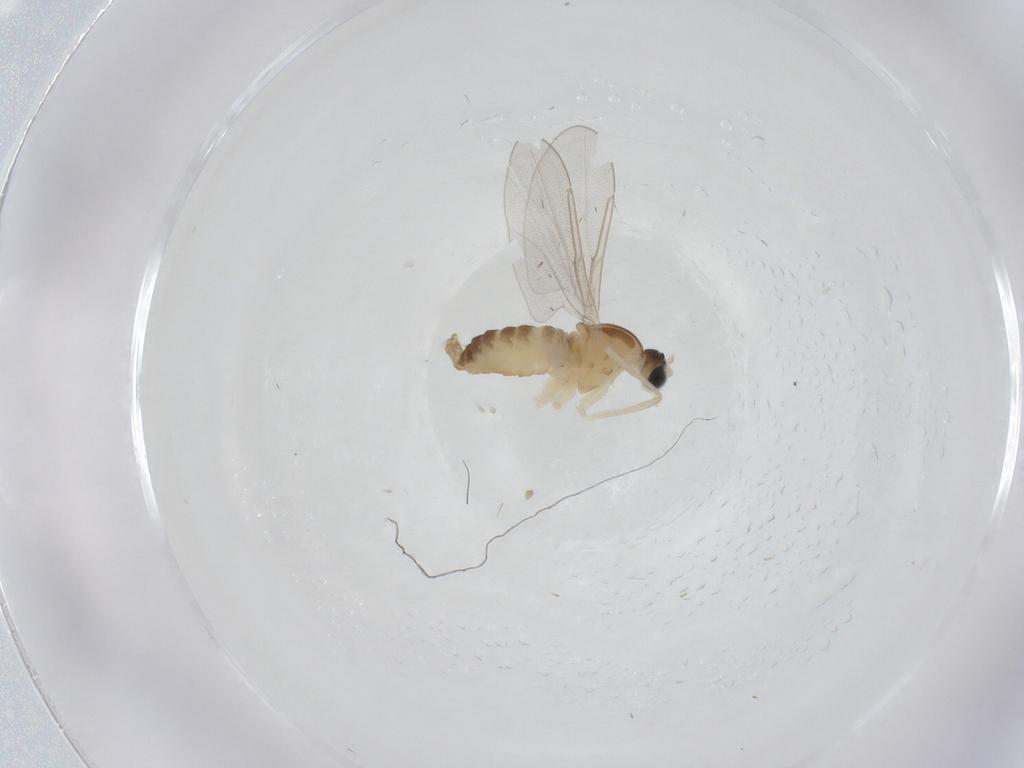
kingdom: Animalia
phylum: Arthropoda
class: Insecta
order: Diptera
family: Cecidomyiidae
